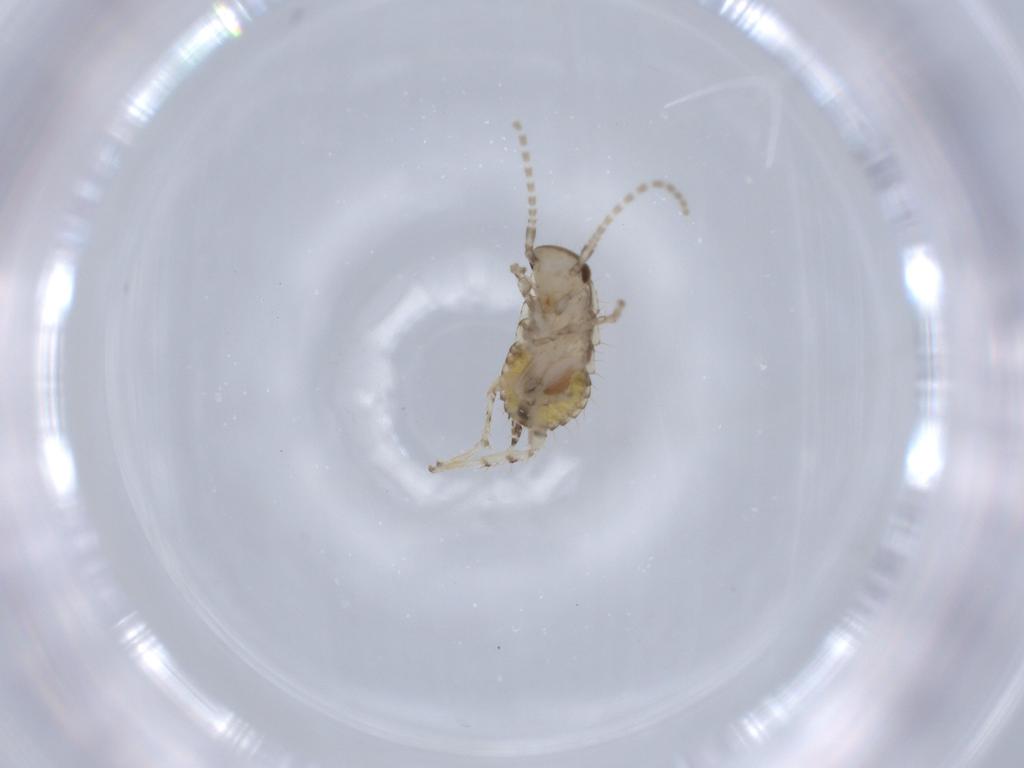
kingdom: Animalia
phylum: Arthropoda
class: Insecta
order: Blattodea
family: Ectobiidae
